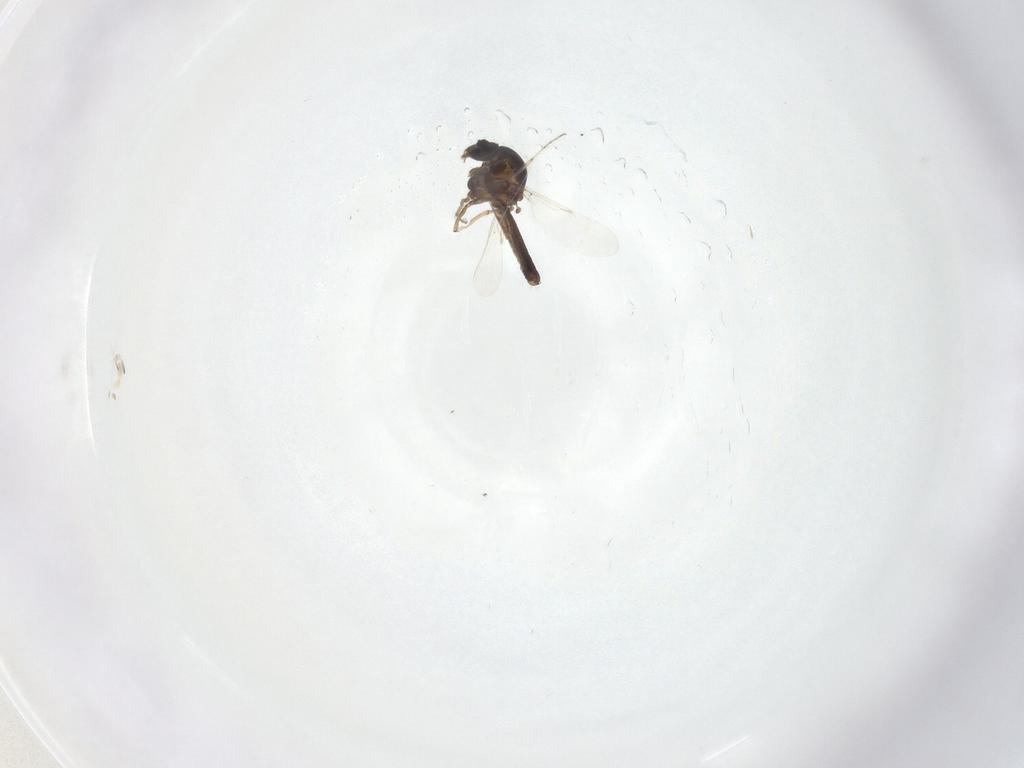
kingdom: Animalia
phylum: Arthropoda
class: Insecta
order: Diptera
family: Ceratopogonidae
